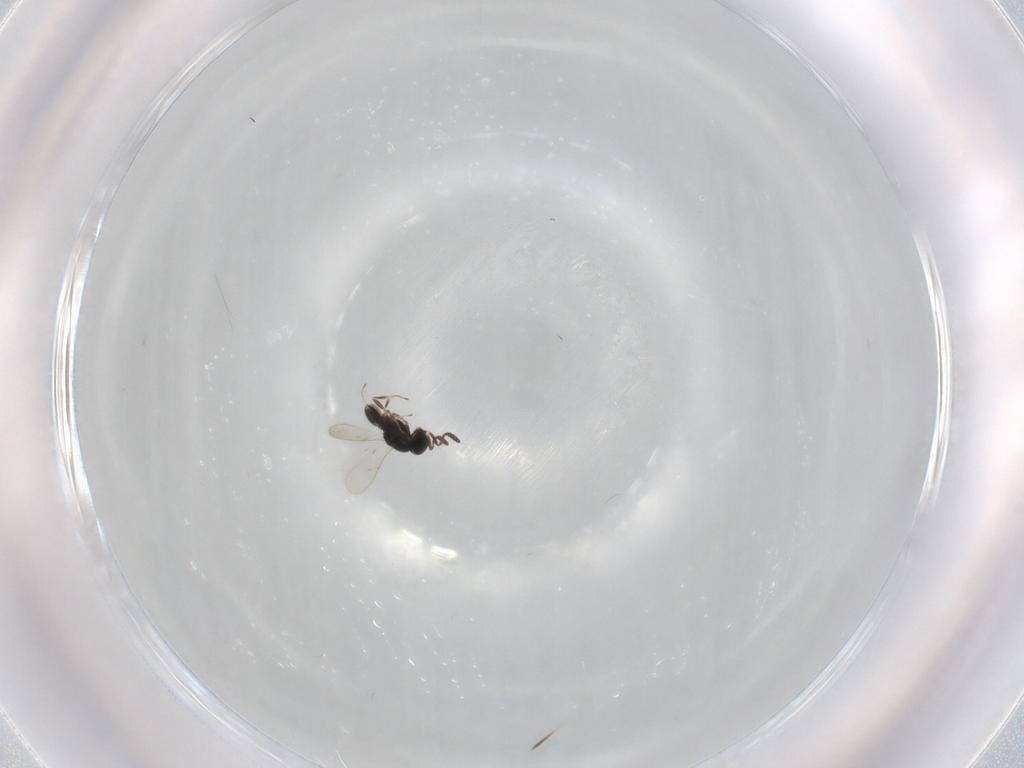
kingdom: Animalia
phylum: Arthropoda
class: Insecta
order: Hymenoptera
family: Scelionidae
